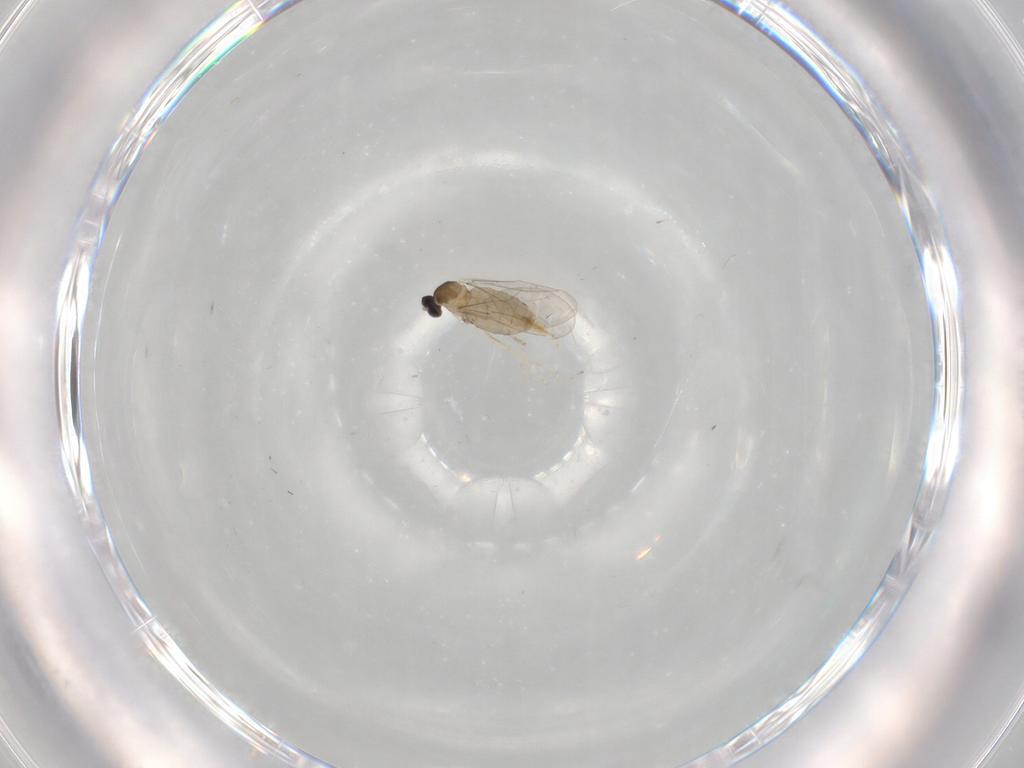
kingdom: Animalia
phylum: Arthropoda
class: Insecta
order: Diptera
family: Cecidomyiidae
